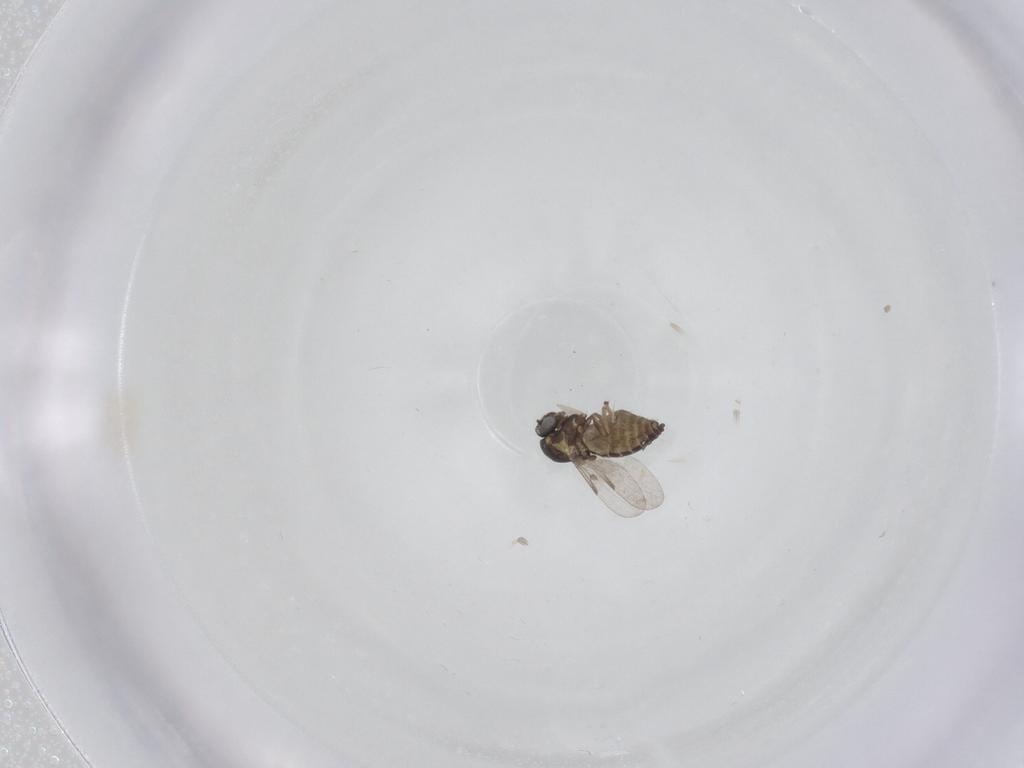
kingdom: Animalia
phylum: Arthropoda
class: Insecta
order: Diptera
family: Ceratopogonidae
